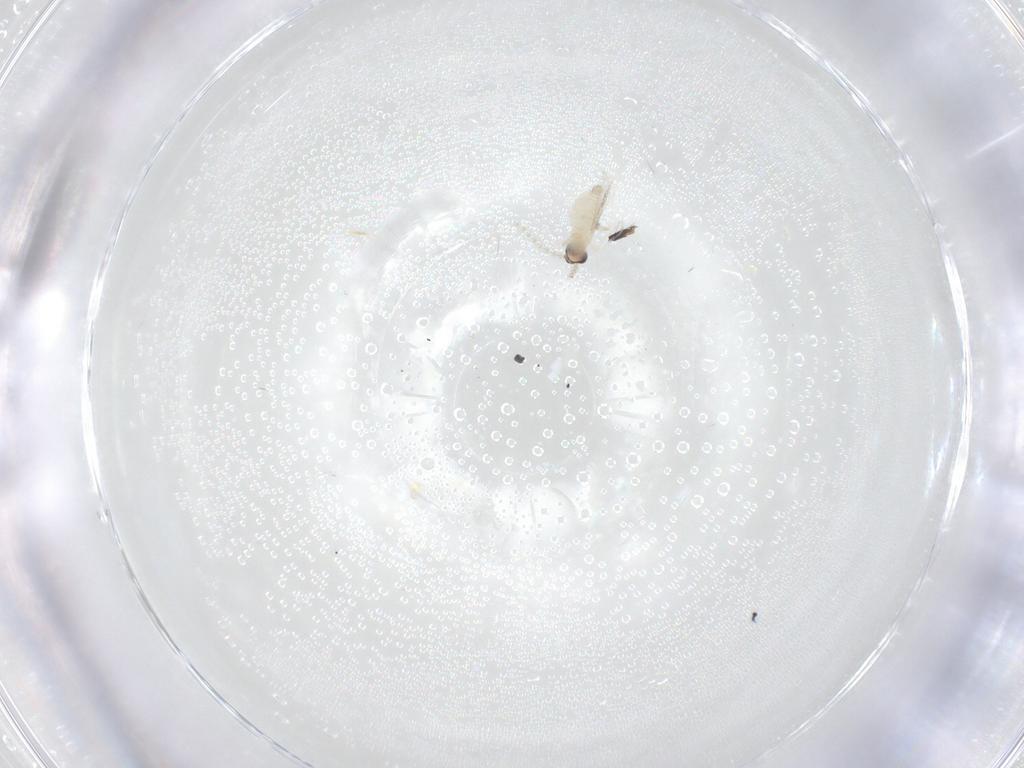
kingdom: Animalia
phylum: Arthropoda
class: Insecta
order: Diptera
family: Cecidomyiidae
